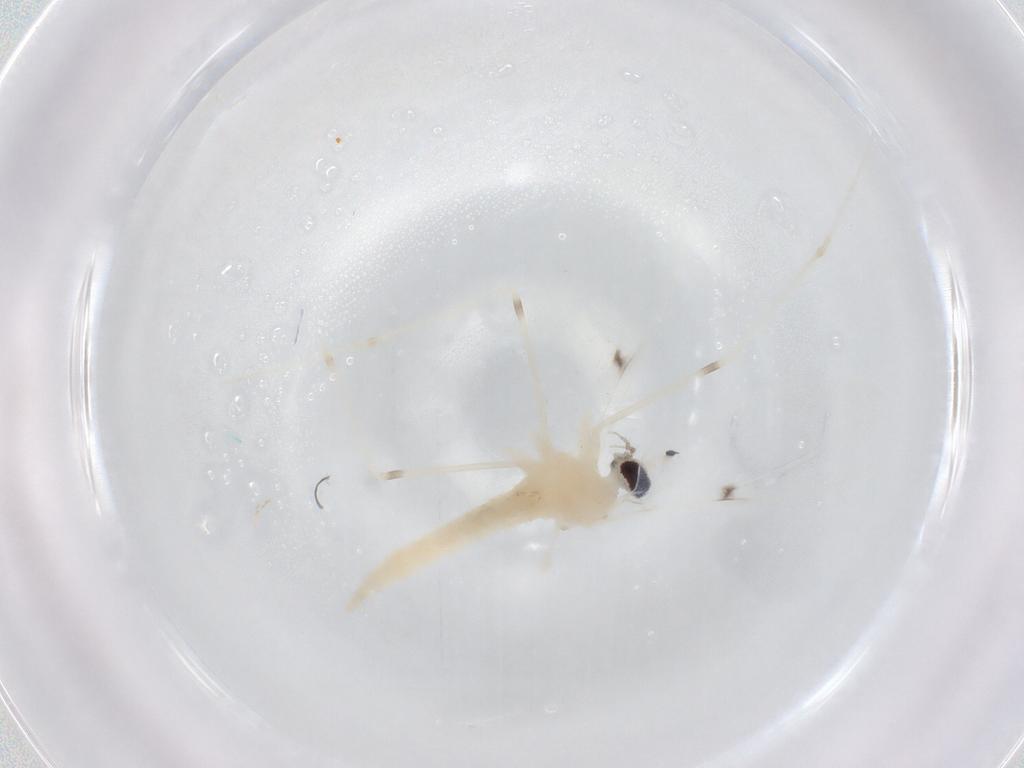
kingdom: Animalia
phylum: Arthropoda
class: Insecta
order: Diptera
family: Cecidomyiidae
